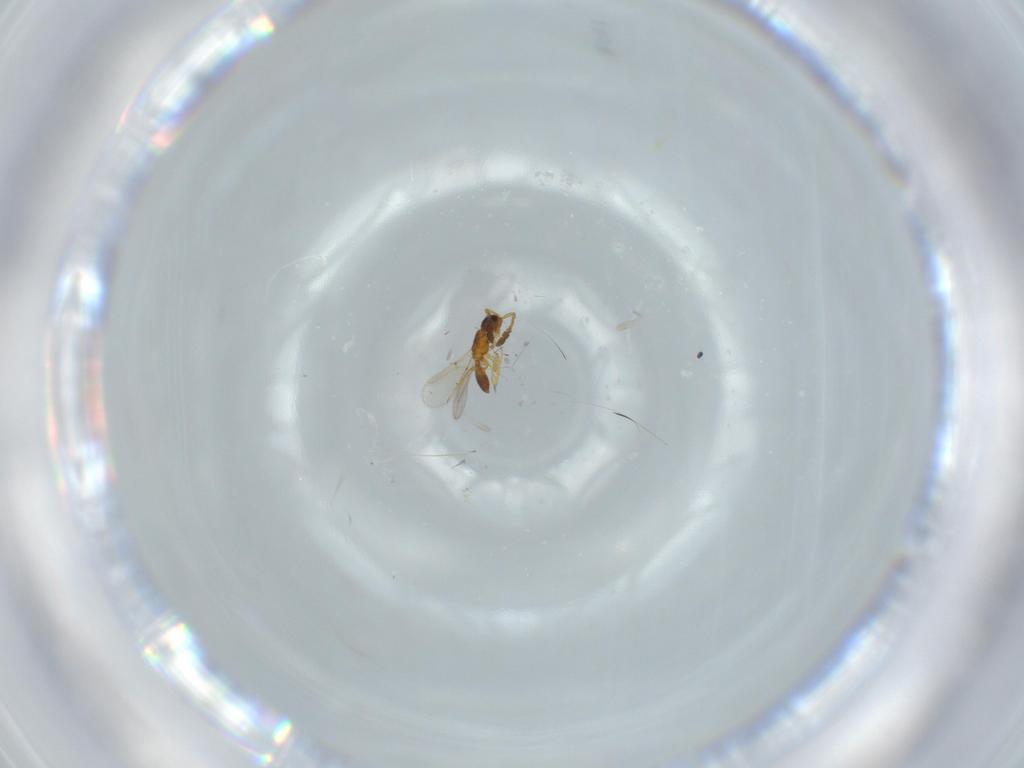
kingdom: Animalia
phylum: Arthropoda
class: Insecta
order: Hymenoptera
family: Diapriidae
